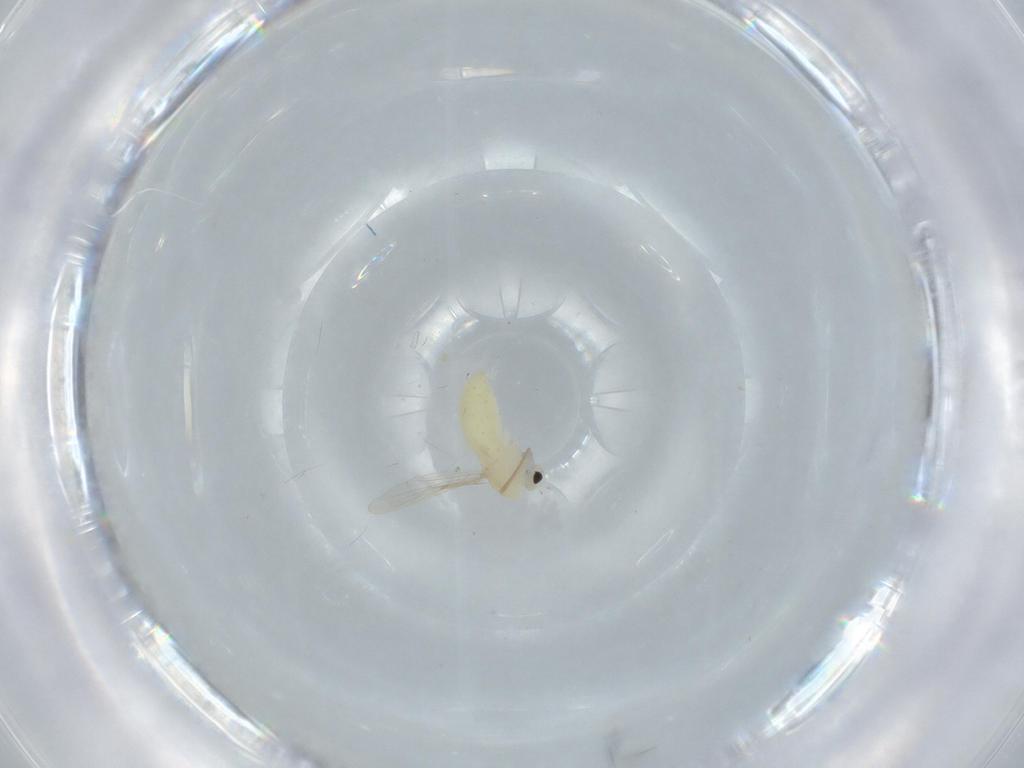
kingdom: Animalia
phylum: Arthropoda
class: Insecta
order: Diptera
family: Chironomidae
